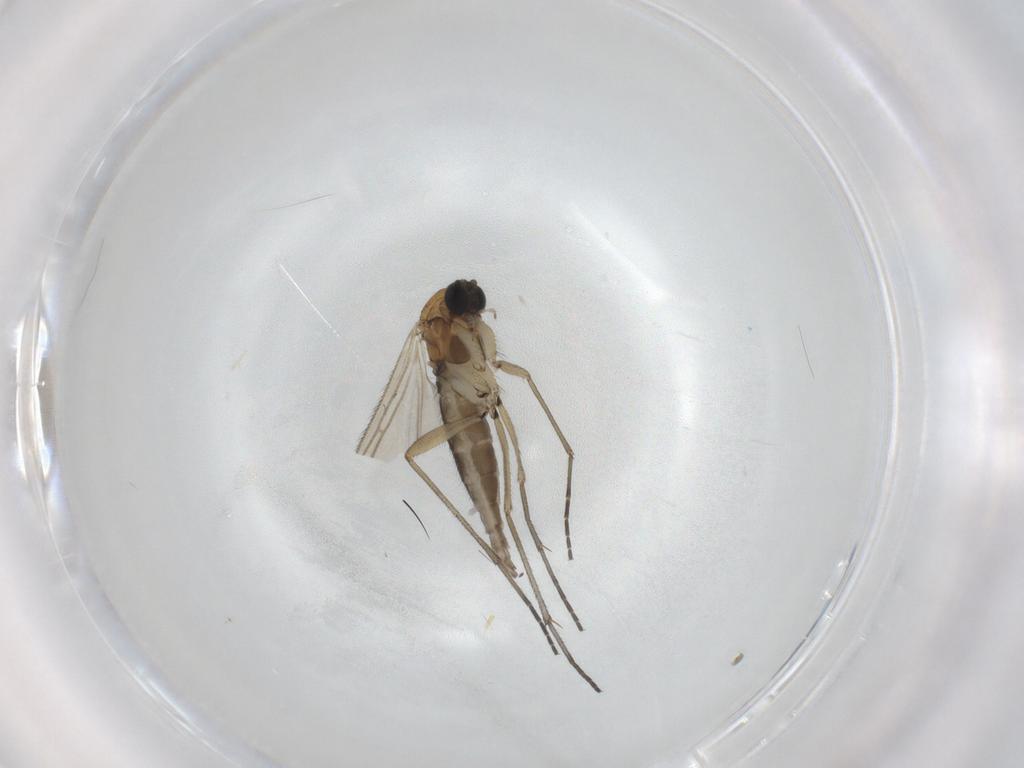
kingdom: Animalia
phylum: Arthropoda
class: Insecta
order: Diptera
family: Sciaridae
